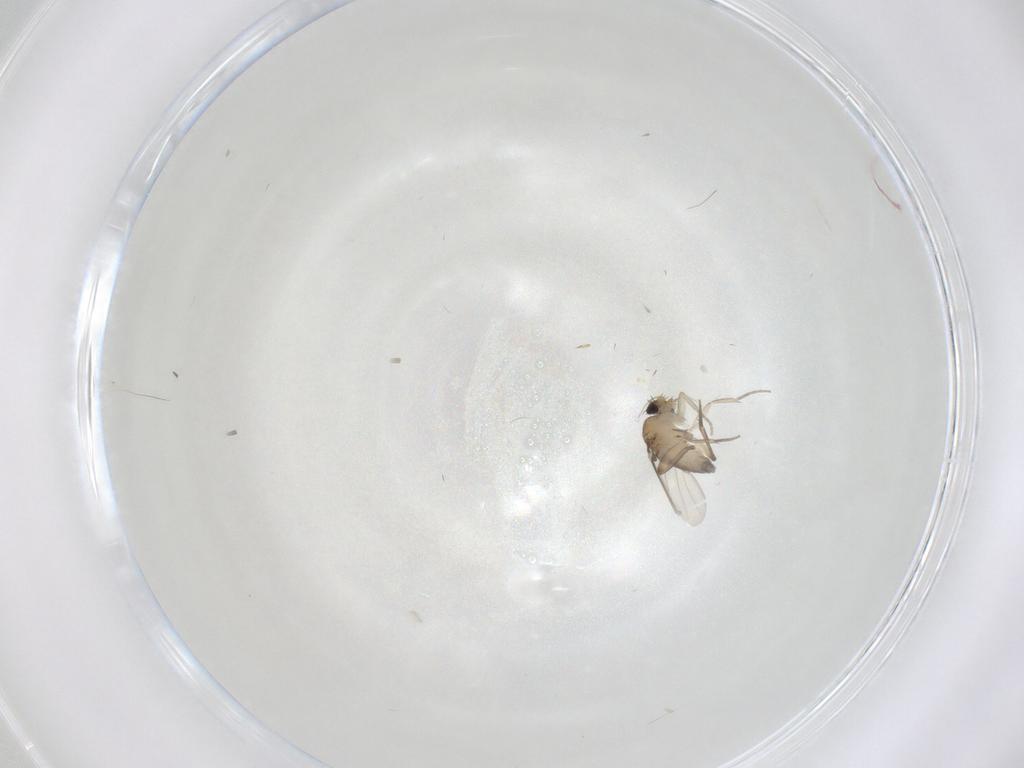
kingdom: Animalia
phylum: Arthropoda
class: Insecta
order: Diptera
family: Phoridae
